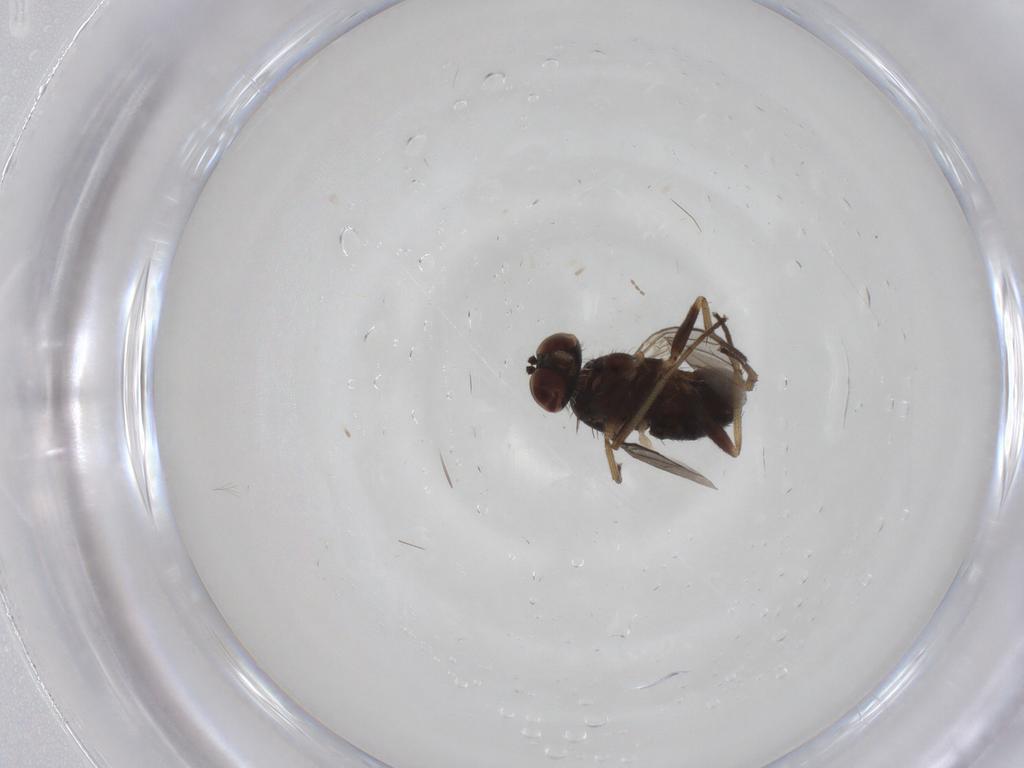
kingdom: Animalia
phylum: Arthropoda
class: Insecta
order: Diptera
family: Dolichopodidae
